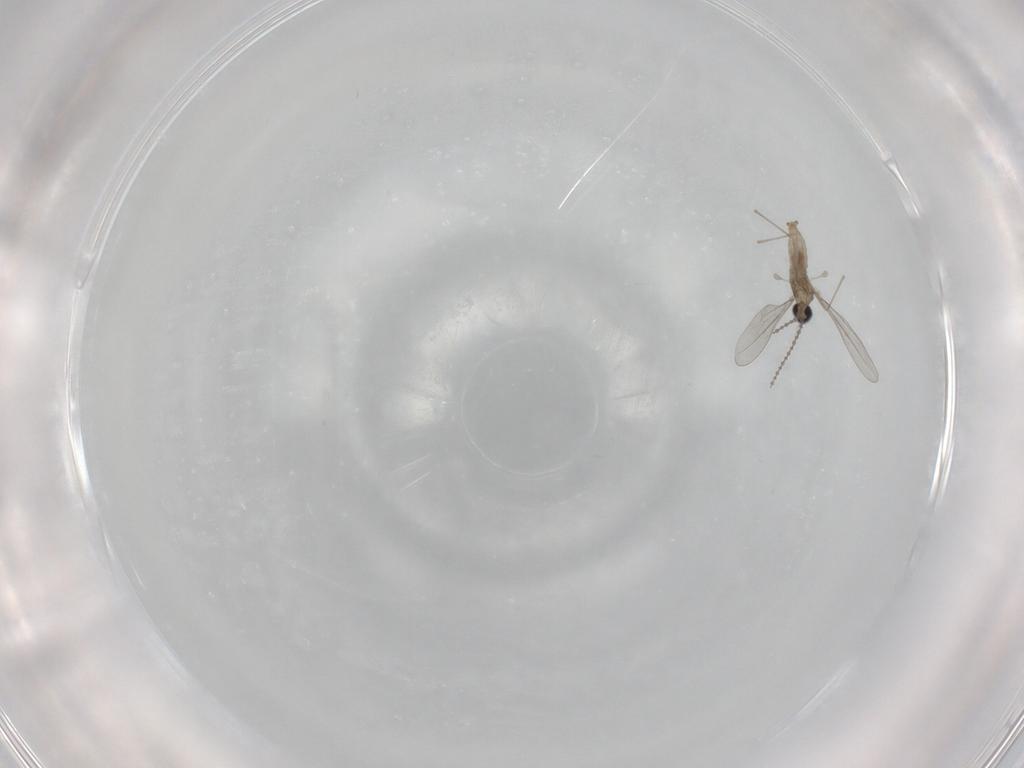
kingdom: Animalia
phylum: Arthropoda
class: Insecta
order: Diptera
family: Cecidomyiidae
